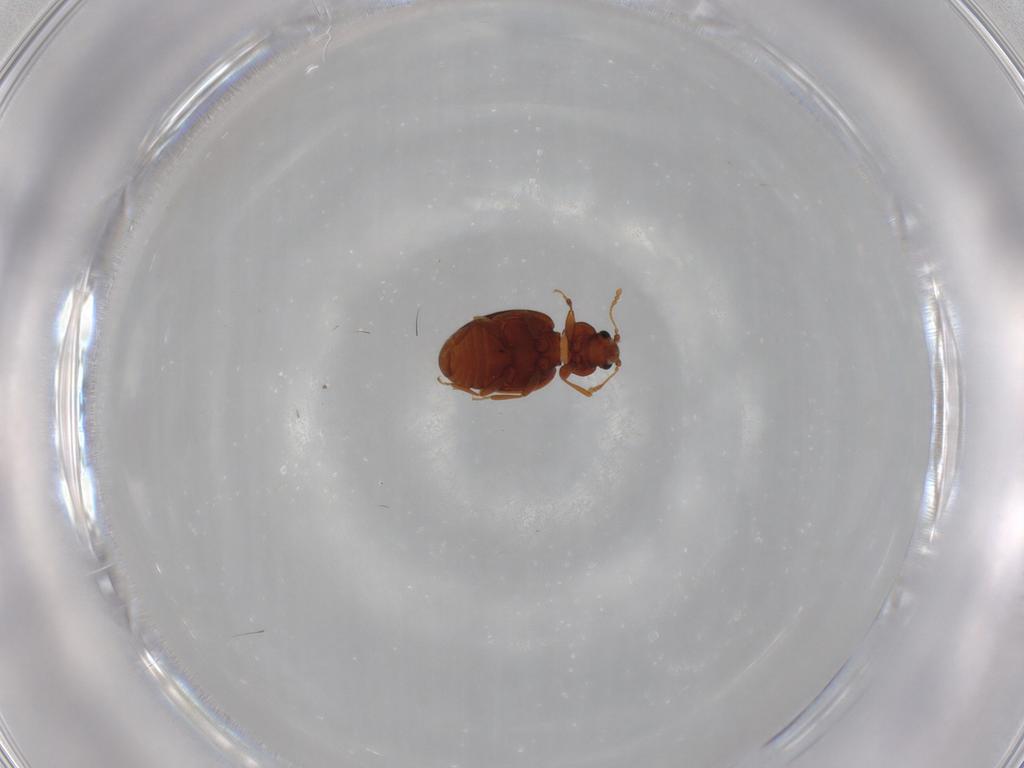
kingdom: Animalia
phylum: Arthropoda
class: Insecta
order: Coleoptera
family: Latridiidae
